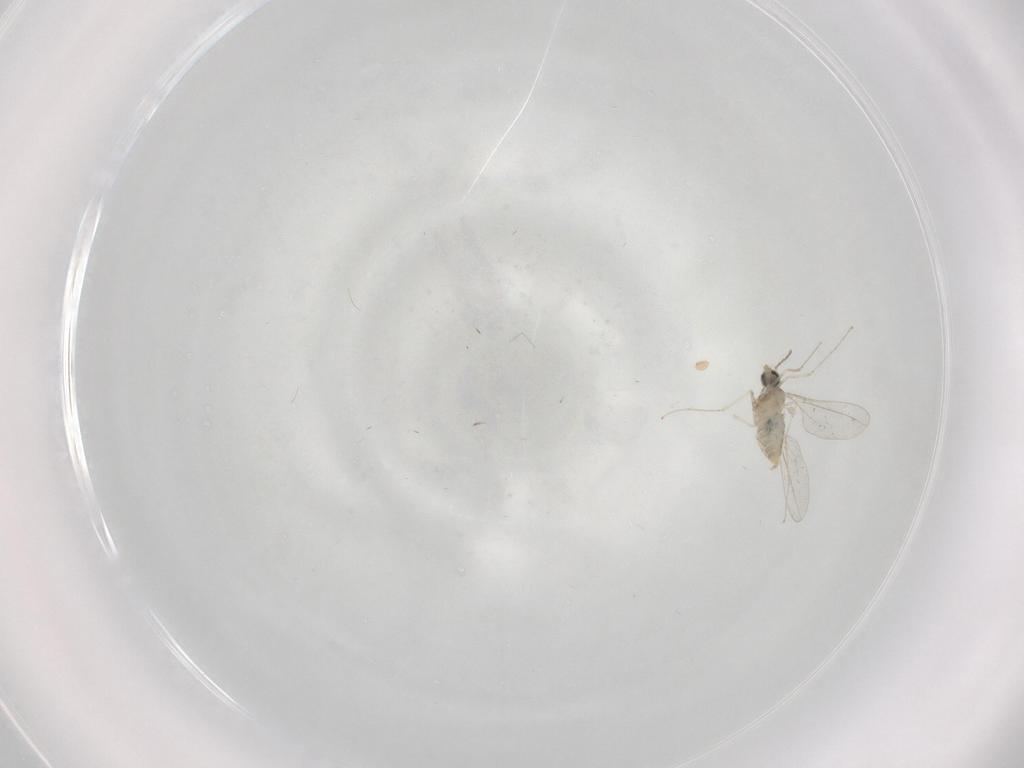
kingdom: Animalia
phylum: Arthropoda
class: Insecta
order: Diptera
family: Cecidomyiidae
